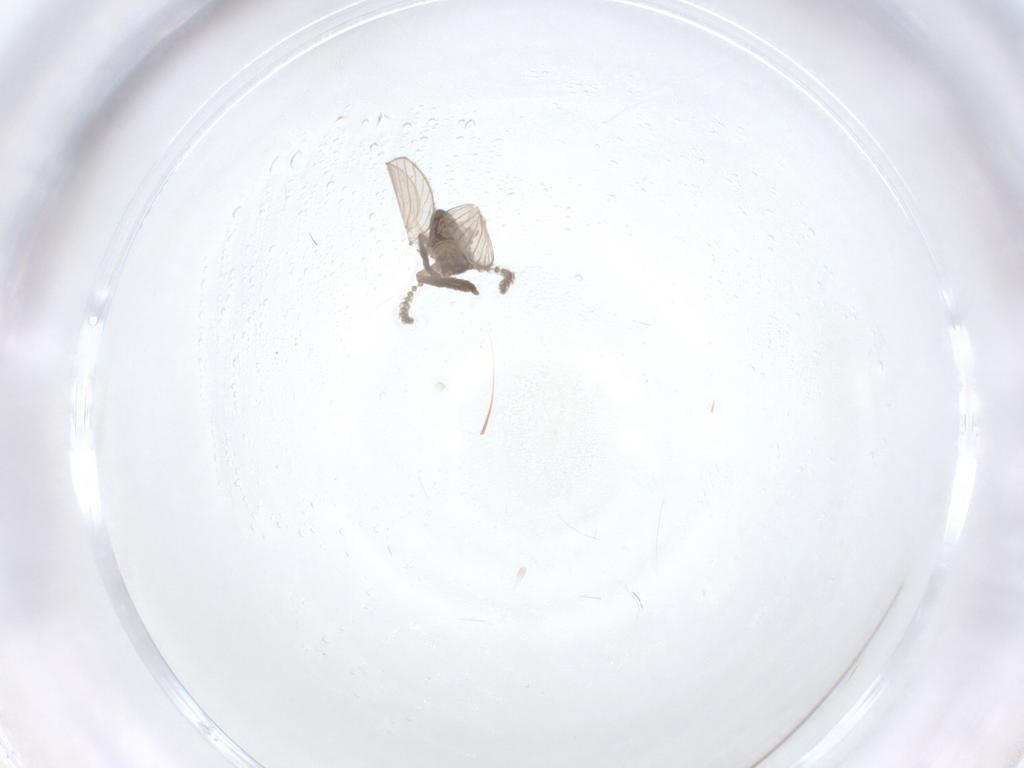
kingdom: Animalia
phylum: Arthropoda
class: Insecta
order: Diptera
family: Psychodidae
